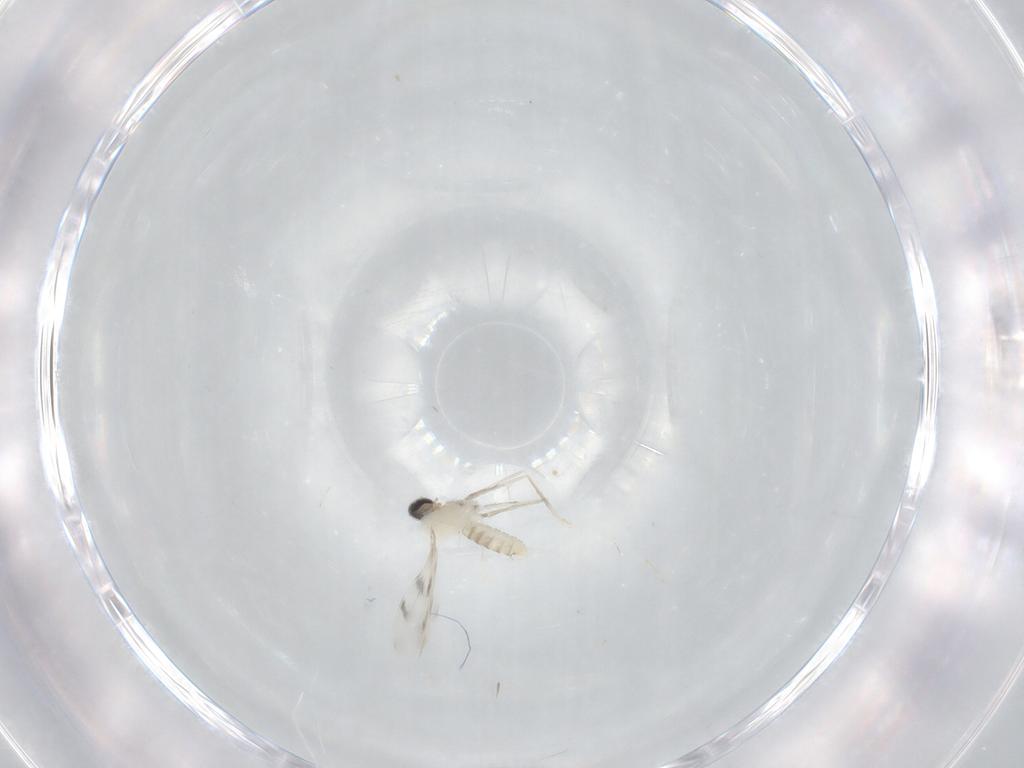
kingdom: Animalia
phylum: Arthropoda
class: Insecta
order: Diptera
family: Cecidomyiidae
